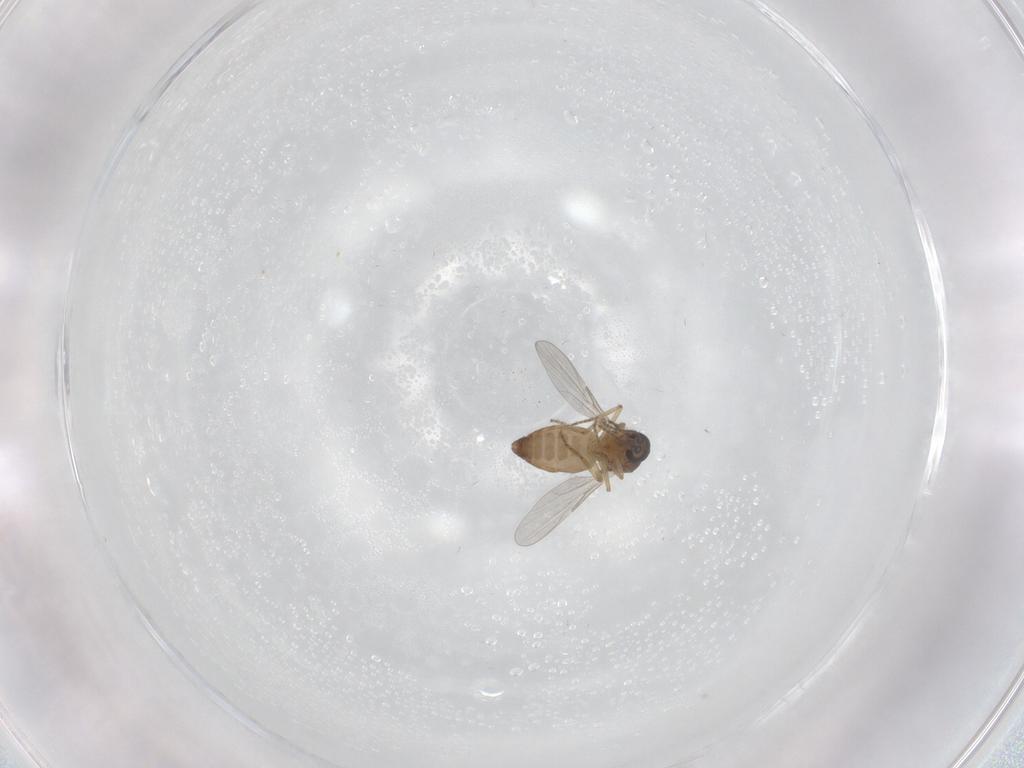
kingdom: Animalia
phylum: Arthropoda
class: Insecta
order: Diptera
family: Ceratopogonidae
